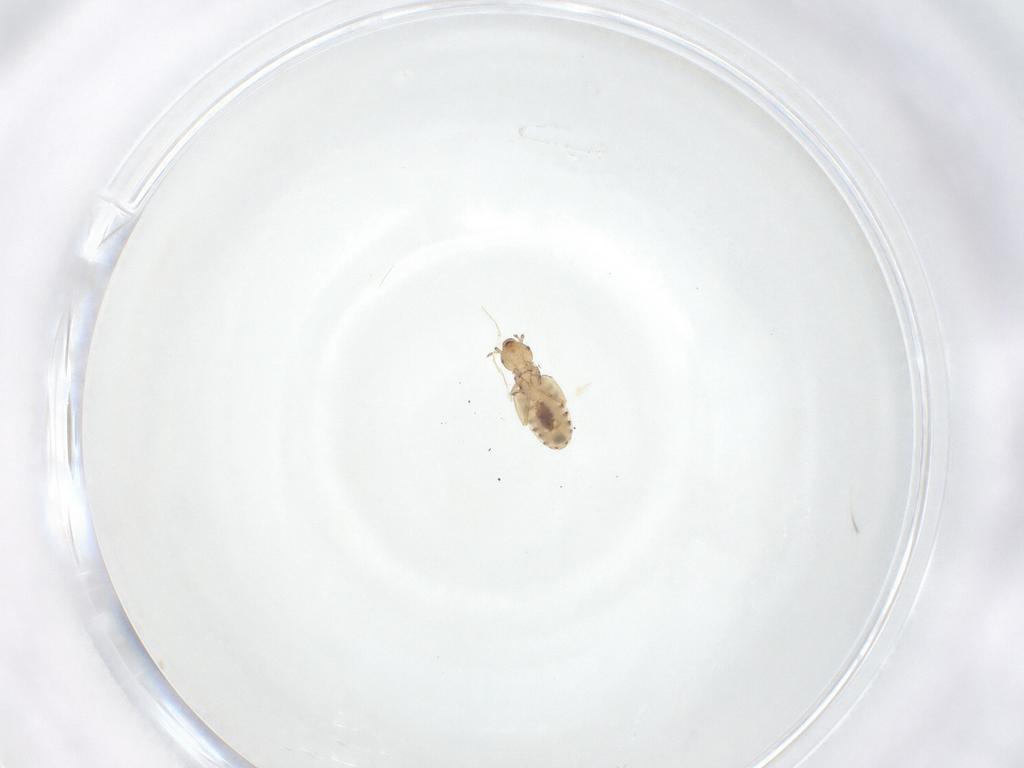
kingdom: Animalia
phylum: Arthropoda
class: Insecta
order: Psocodea
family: Liposcelididae
